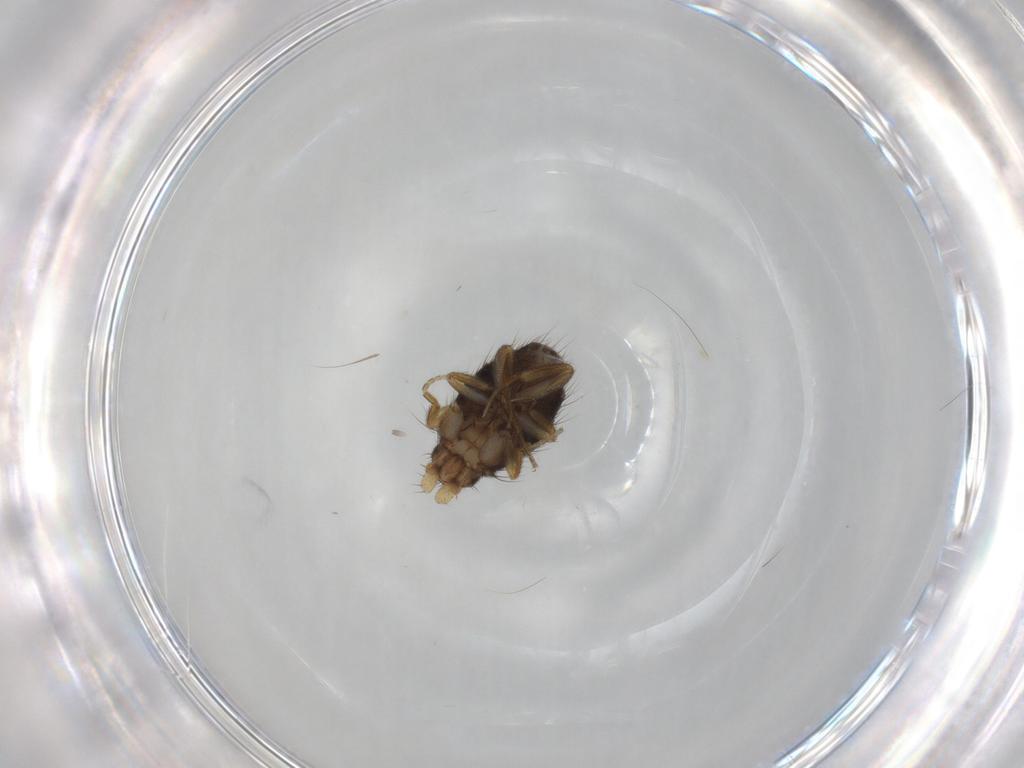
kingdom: Animalia
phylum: Arthropoda
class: Insecta
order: Diptera
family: Phoridae
